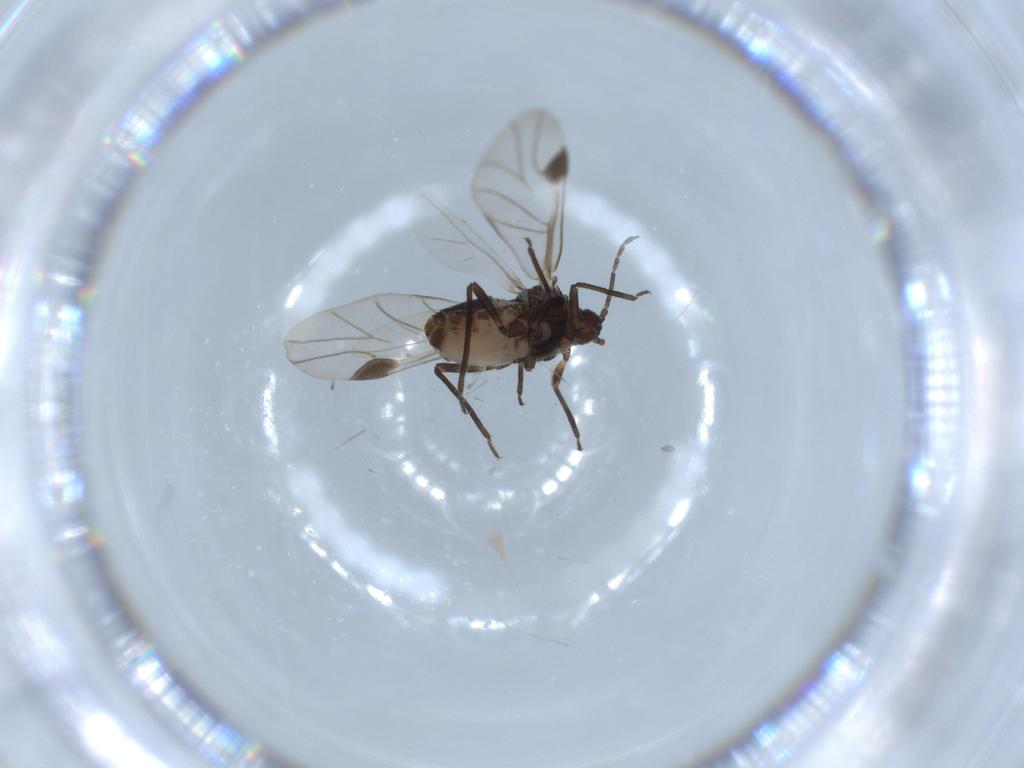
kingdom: Animalia
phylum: Arthropoda
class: Insecta
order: Hemiptera
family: Aphididae
